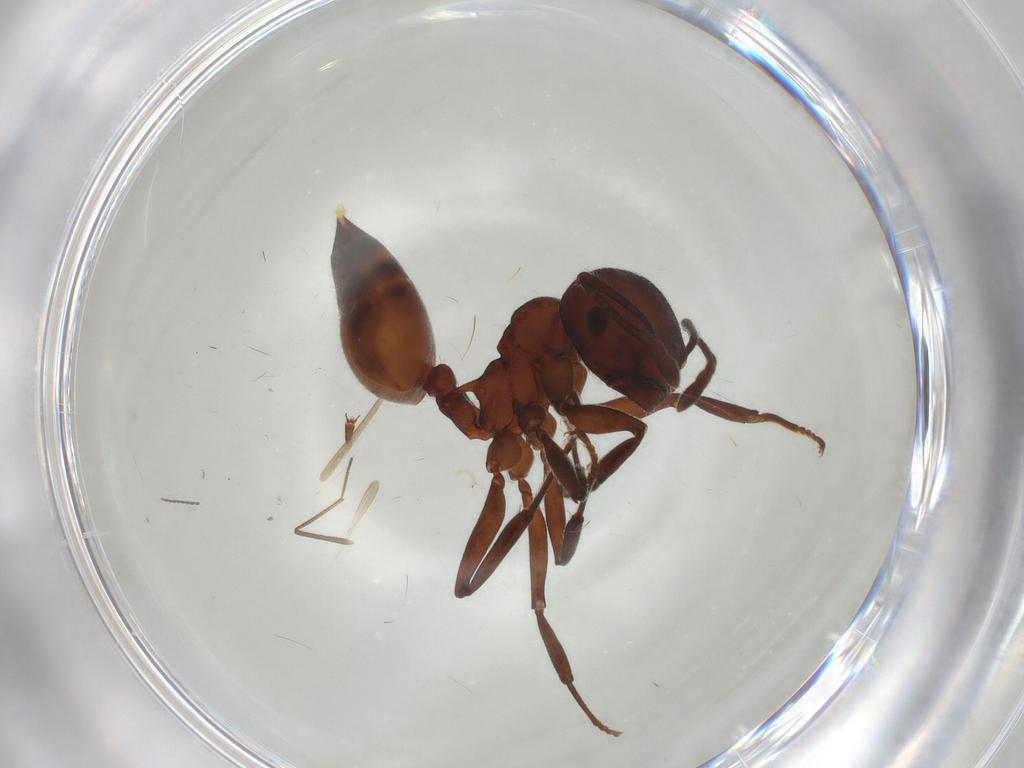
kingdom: Animalia
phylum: Arthropoda
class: Insecta
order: Hymenoptera
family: Formicidae
